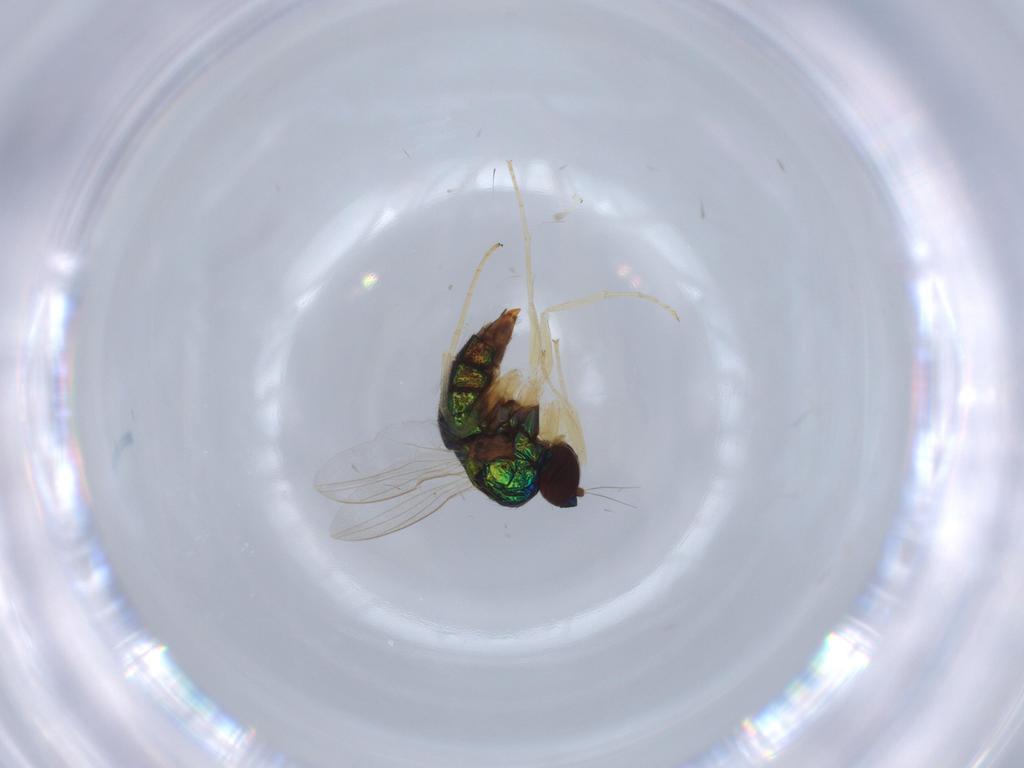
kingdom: Animalia
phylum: Arthropoda
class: Insecta
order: Diptera
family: Dolichopodidae
